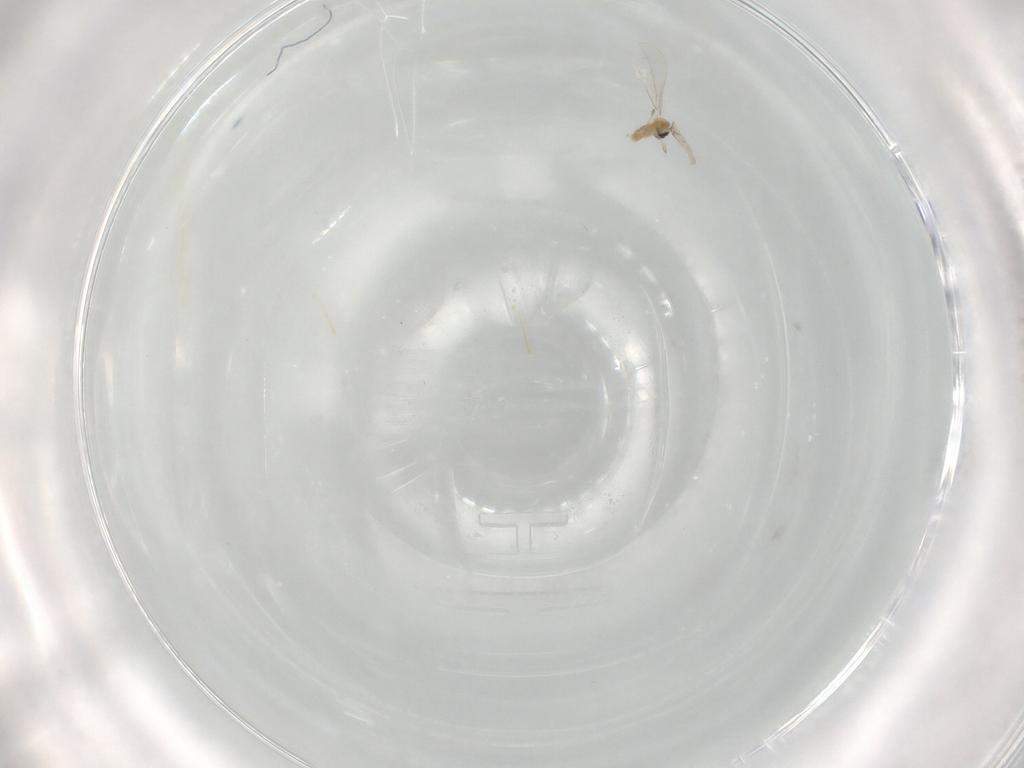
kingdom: Animalia
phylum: Arthropoda
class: Insecta
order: Diptera
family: Cecidomyiidae
